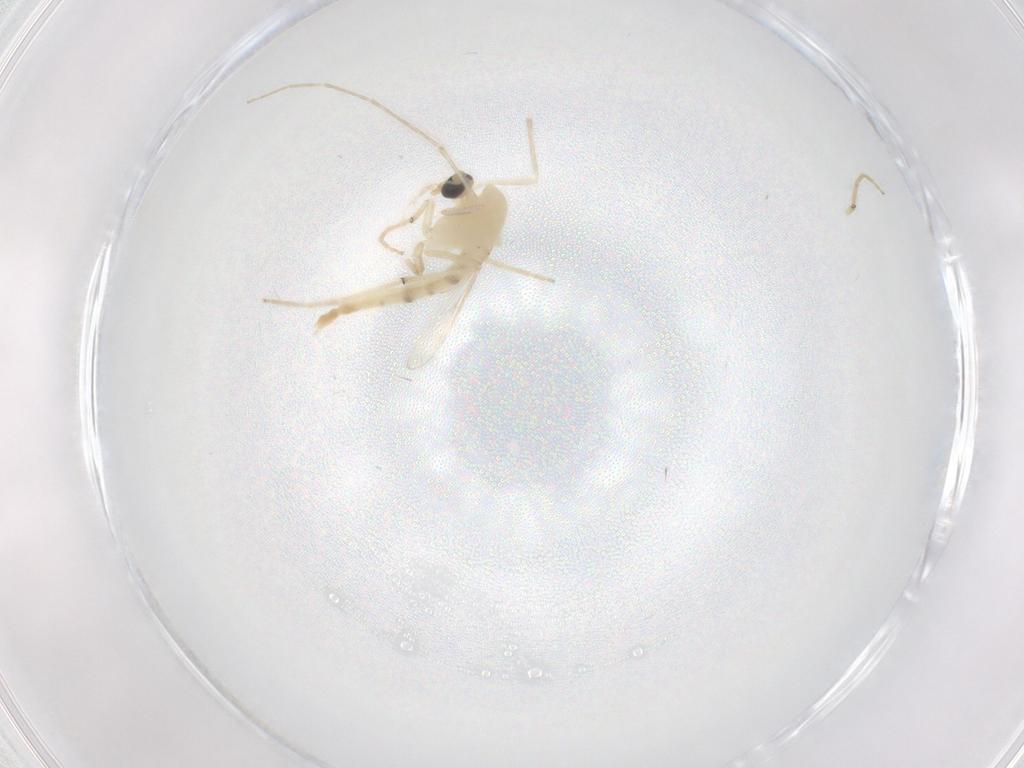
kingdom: Animalia
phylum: Arthropoda
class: Insecta
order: Diptera
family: Chironomidae
